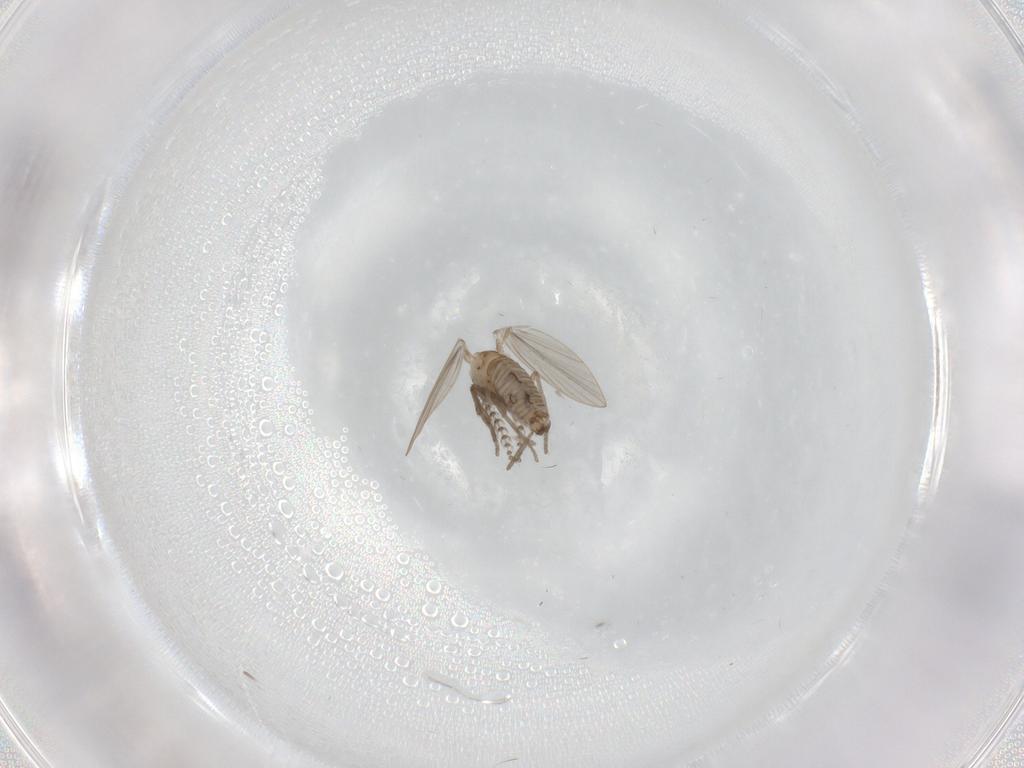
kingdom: Animalia
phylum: Arthropoda
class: Insecta
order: Diptera
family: Psychodidae
